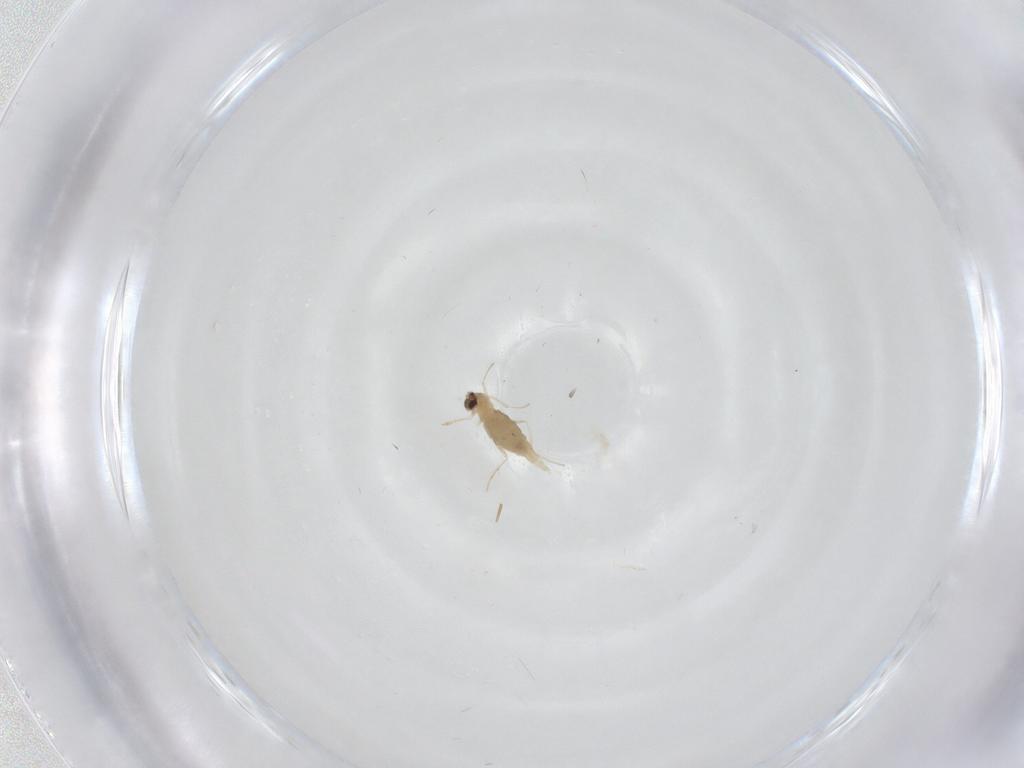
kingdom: Animalia
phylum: Arthropoda
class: Insecta
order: Diptera
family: Cecidomyiidae
